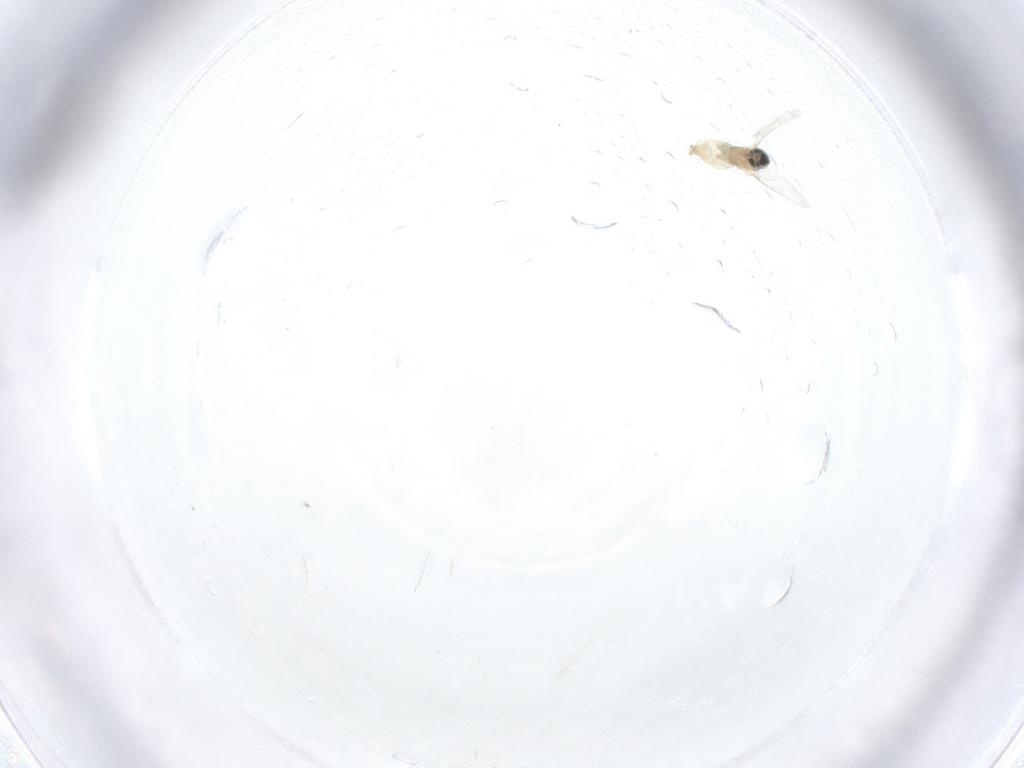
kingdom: Animalia
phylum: Arthropoda
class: Insecta
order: Diptera
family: Cecidomyiidae
